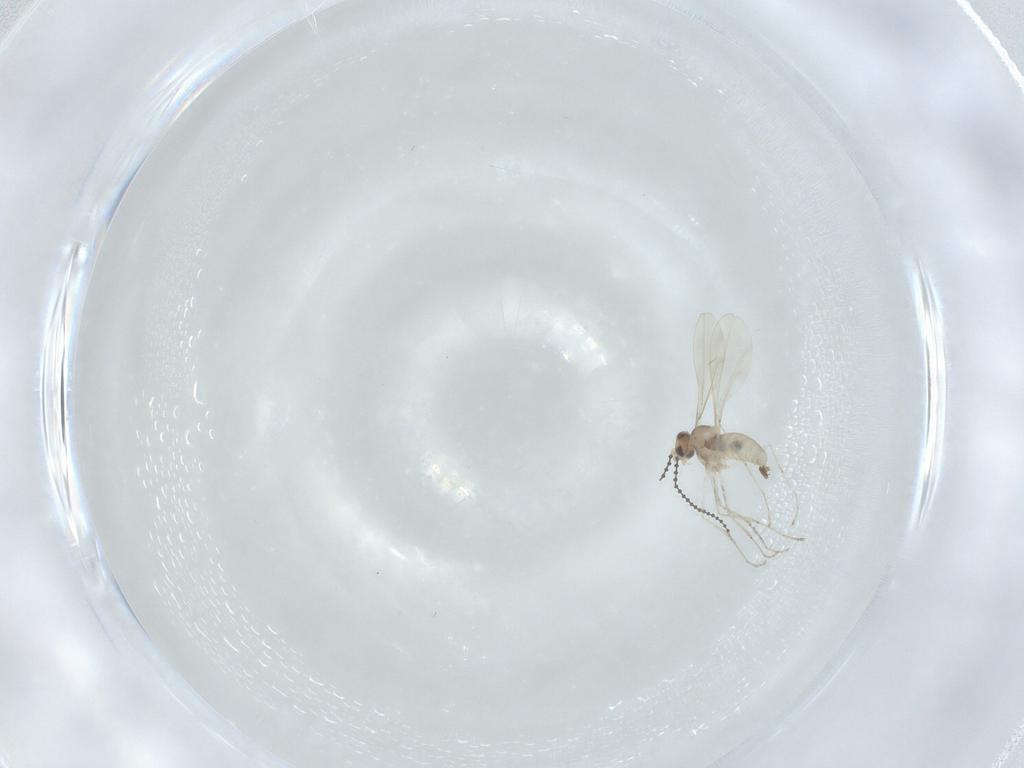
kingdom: Animalia
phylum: Arthropoda
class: Insecta
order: Diptera
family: Cecidomyiidae
